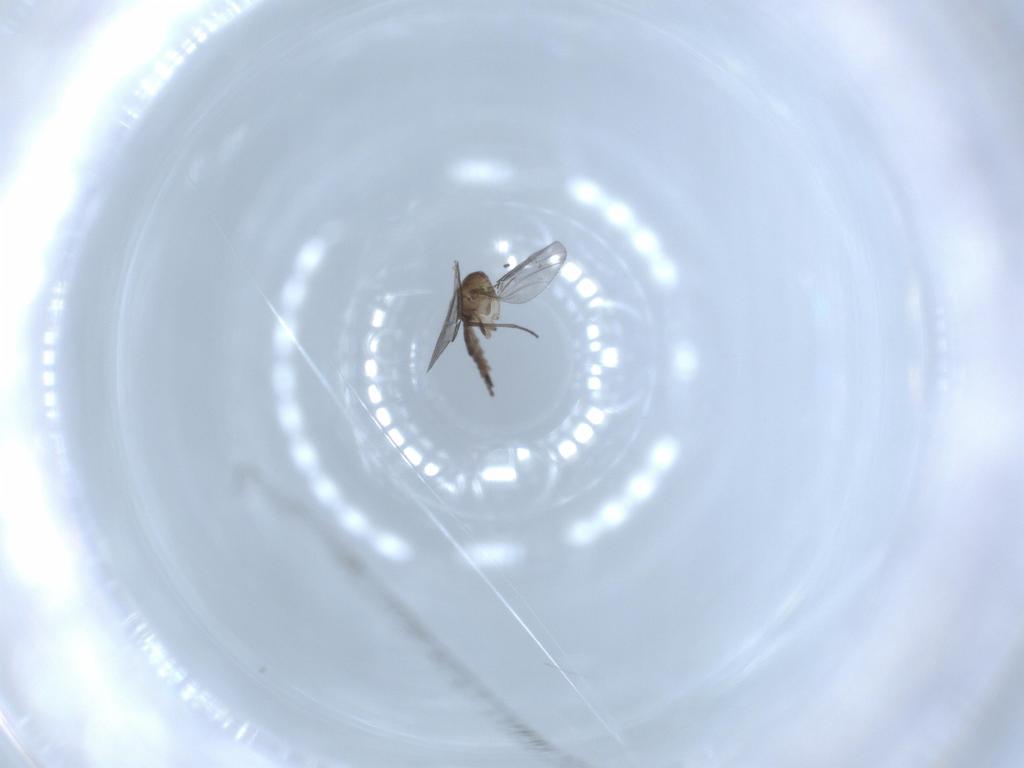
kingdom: Animalia
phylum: Arthropoda
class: Insecta
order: Diptera
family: Sciaridae
